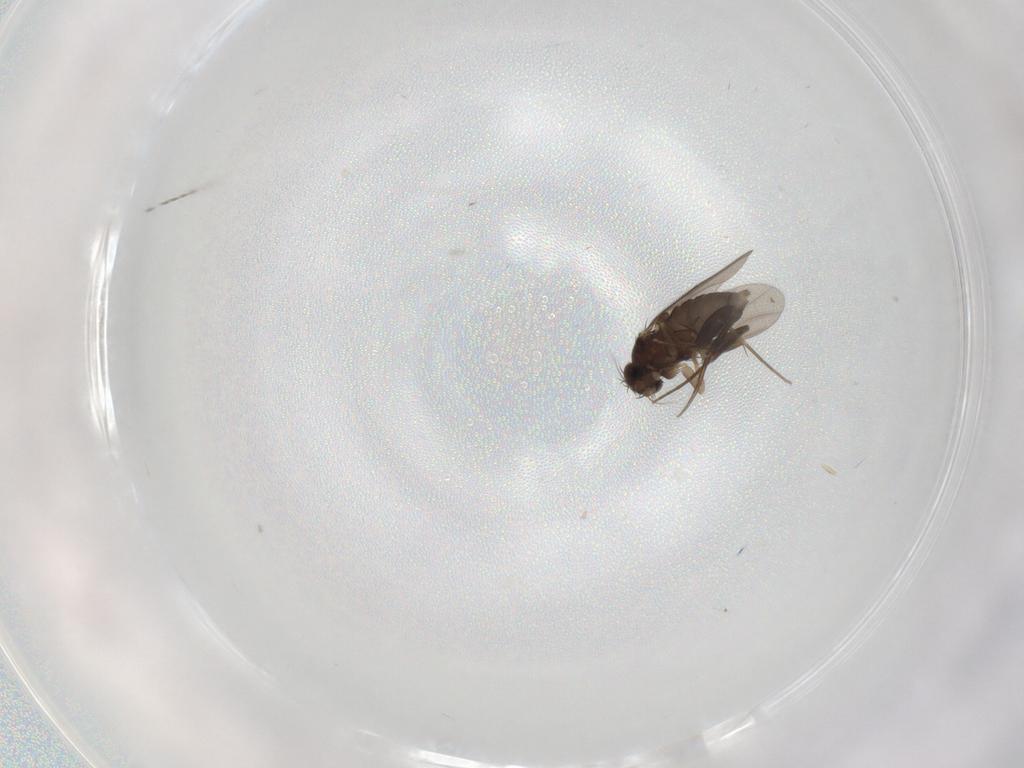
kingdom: Animalia
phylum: Arthropoda
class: Insecta
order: Diptera
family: Phoridae
